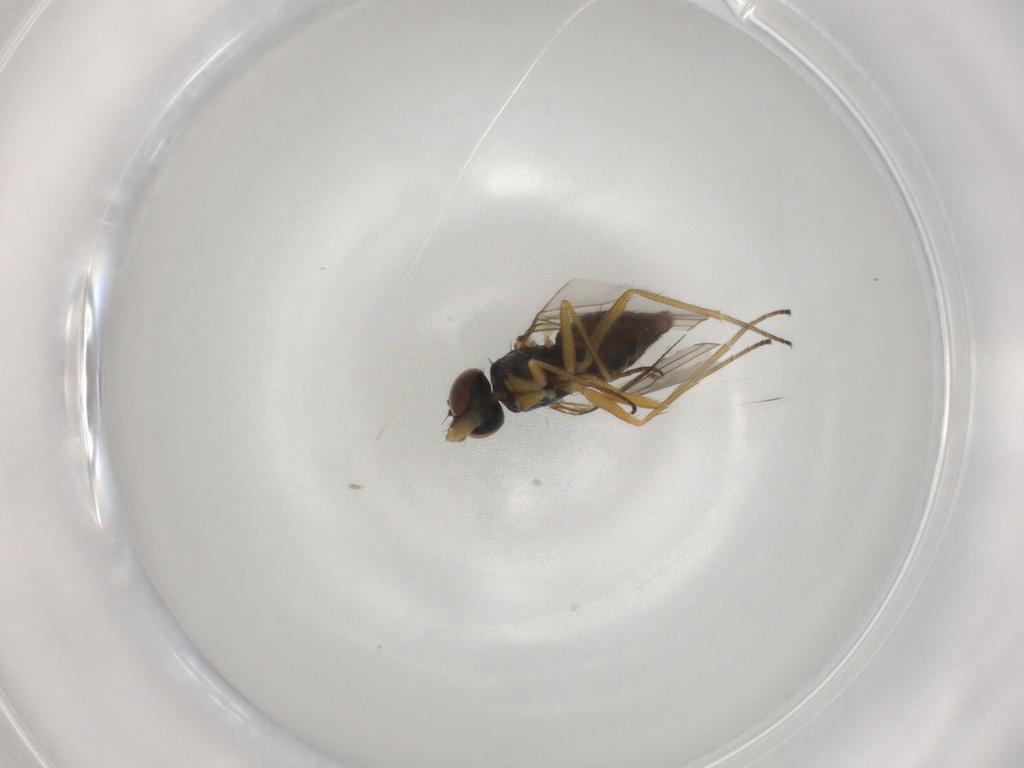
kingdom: Animalia
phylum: Arthropoda
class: Insecta
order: Diptera
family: Dolichopodidae
